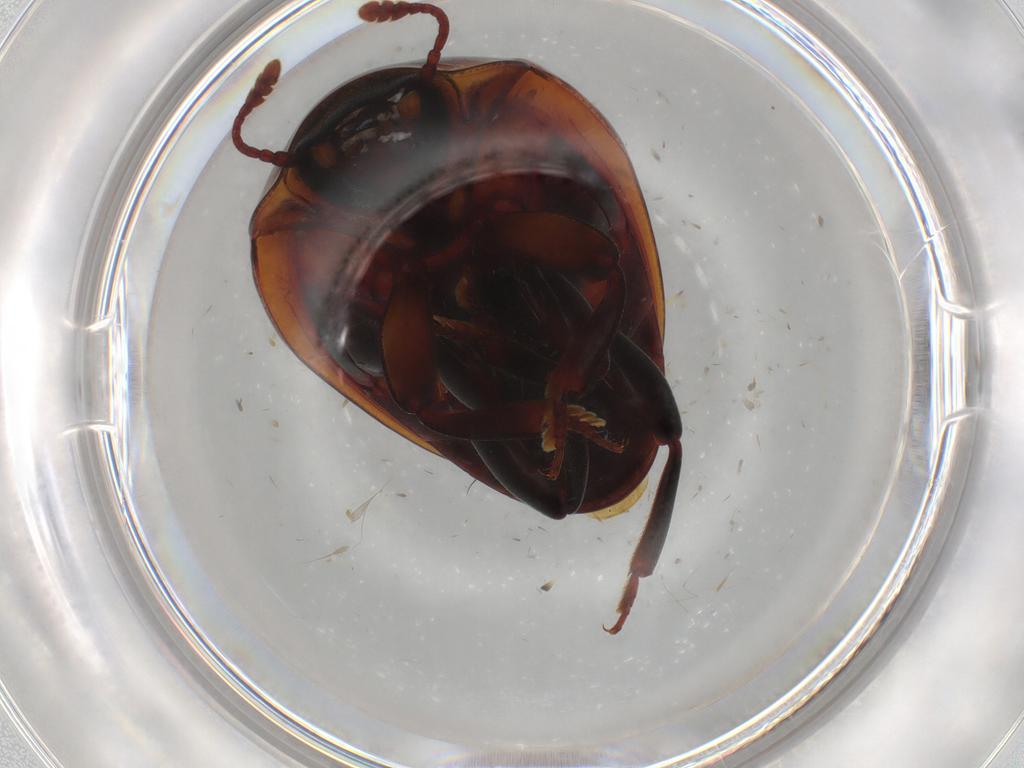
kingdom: Animalia
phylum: Arthropoda
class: Insecta
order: Coleoptera
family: Zopheridae
